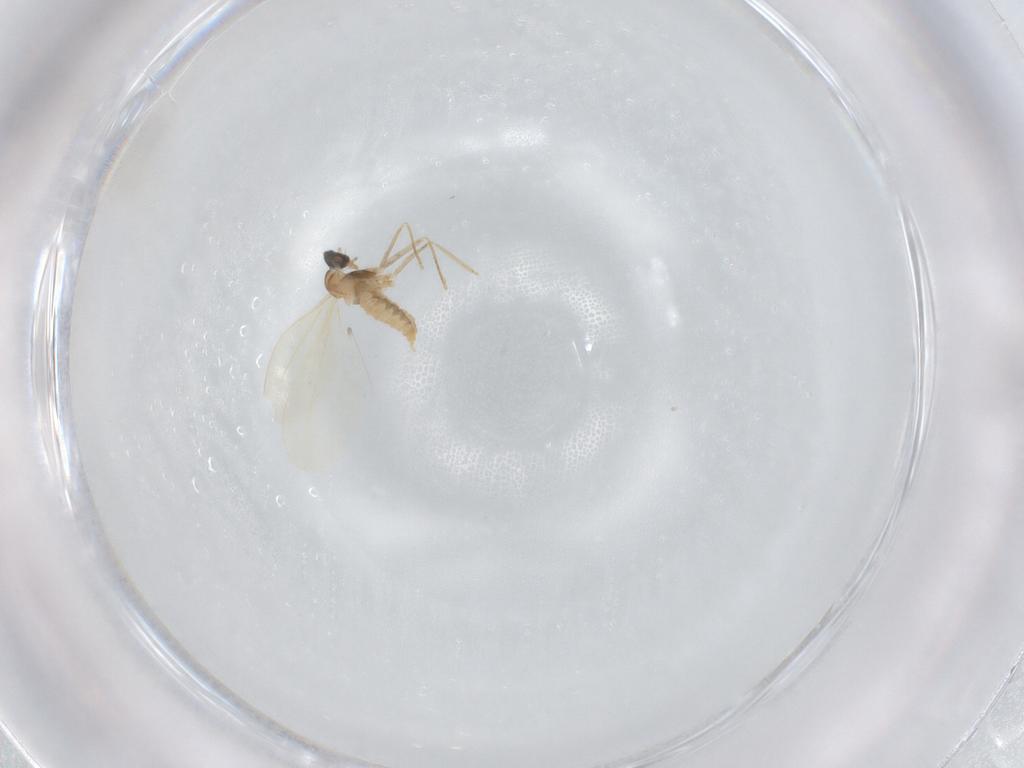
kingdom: Animalia
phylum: Arthropoda
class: Insecta
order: Diptera
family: Cecidomyiidae
